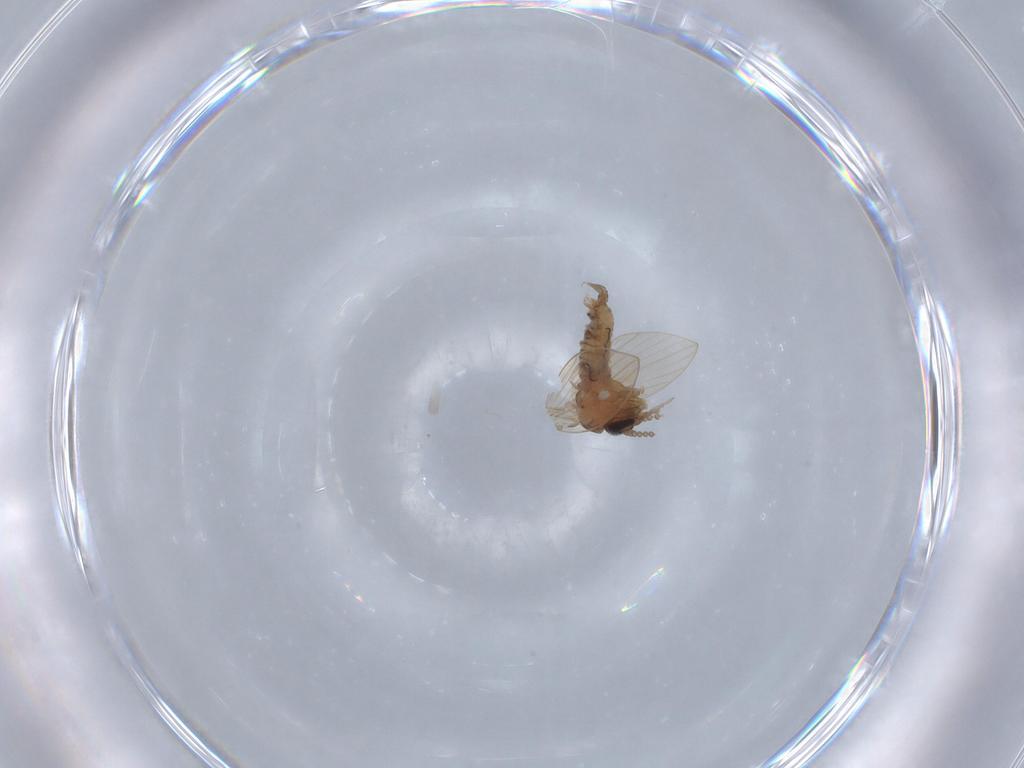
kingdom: Animalia
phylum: Arthropoda
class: Insecta
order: Diptera
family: Psychodidae
